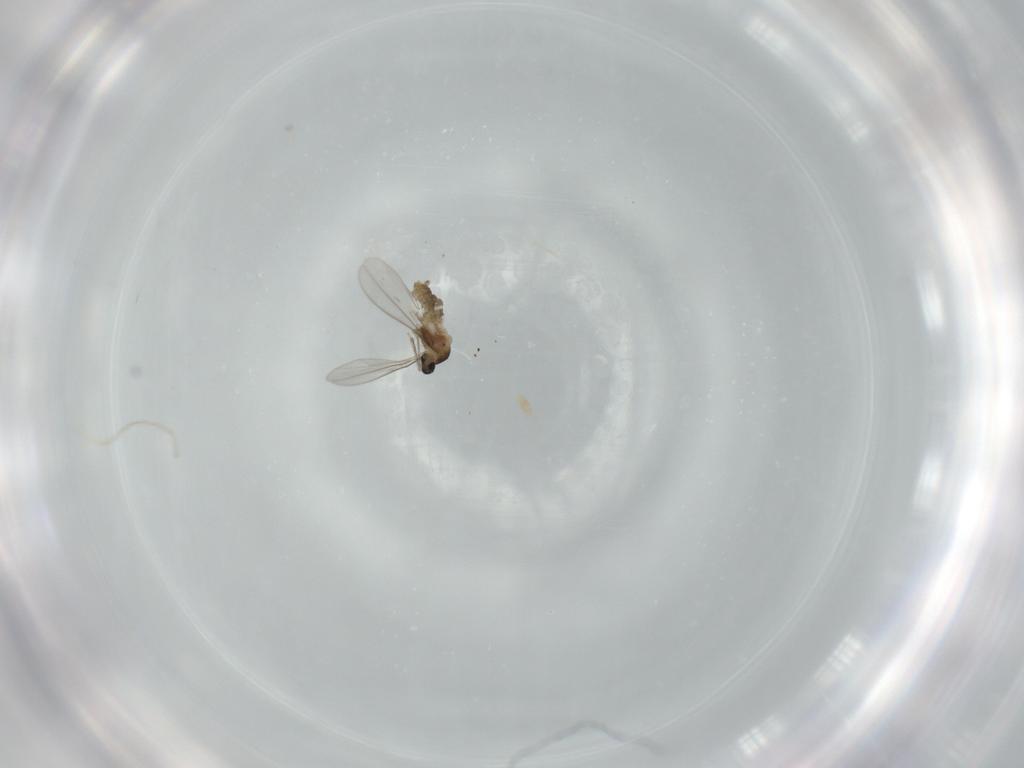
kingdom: Animalia
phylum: Arthropoda
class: Insecta
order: Diptera
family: Cecidomyiidae
